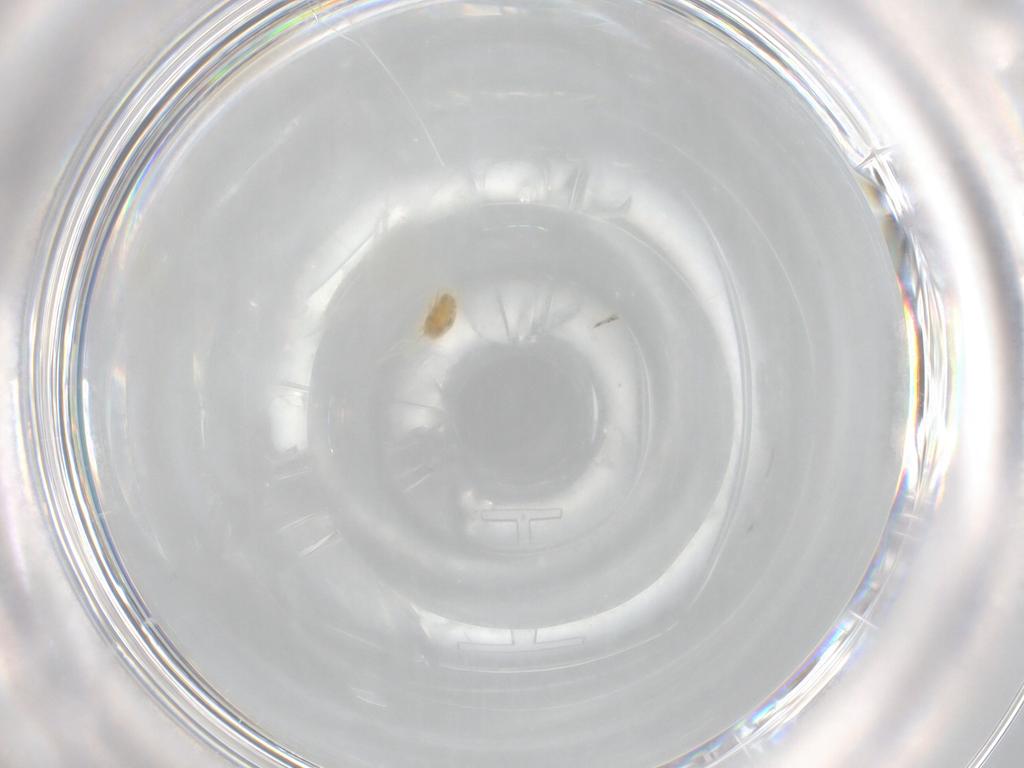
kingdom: Animalia
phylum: Arthropoda
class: Arachnida
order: Trombidiformes
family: Tetranychidae
